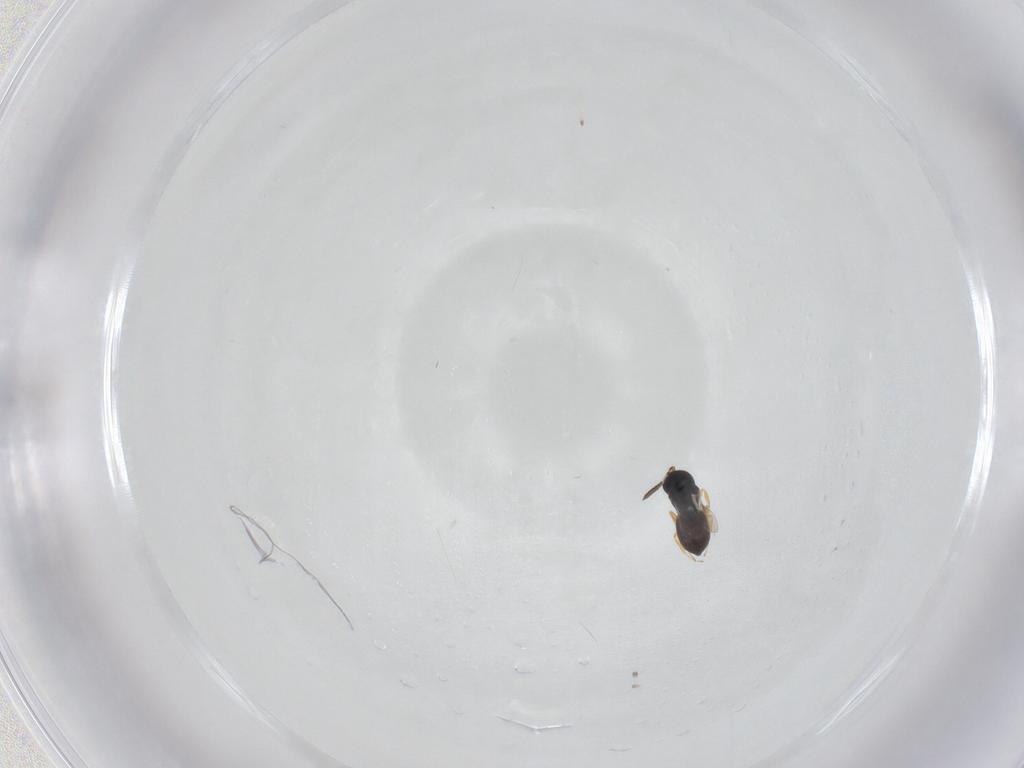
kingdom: Animalia
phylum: Arthropoda
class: Insecta
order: Hymenoptera
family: Scelionidae
